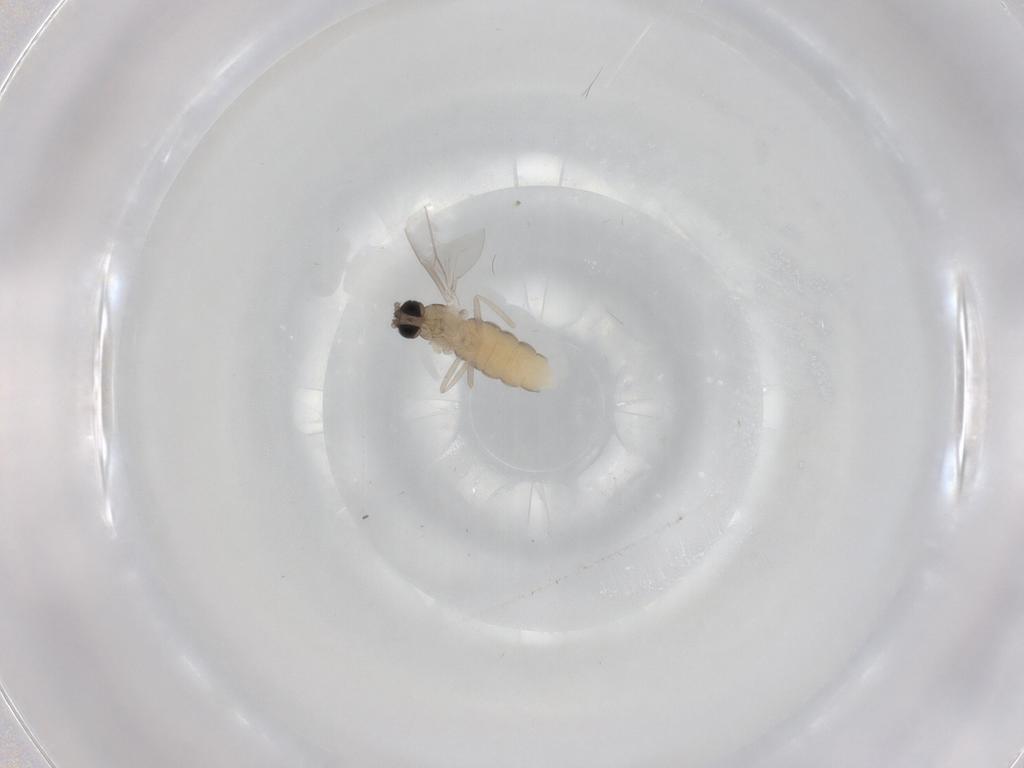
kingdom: Animalia
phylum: Arthropoda
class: Insecta
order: Diptera
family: Cecidomyiidae
